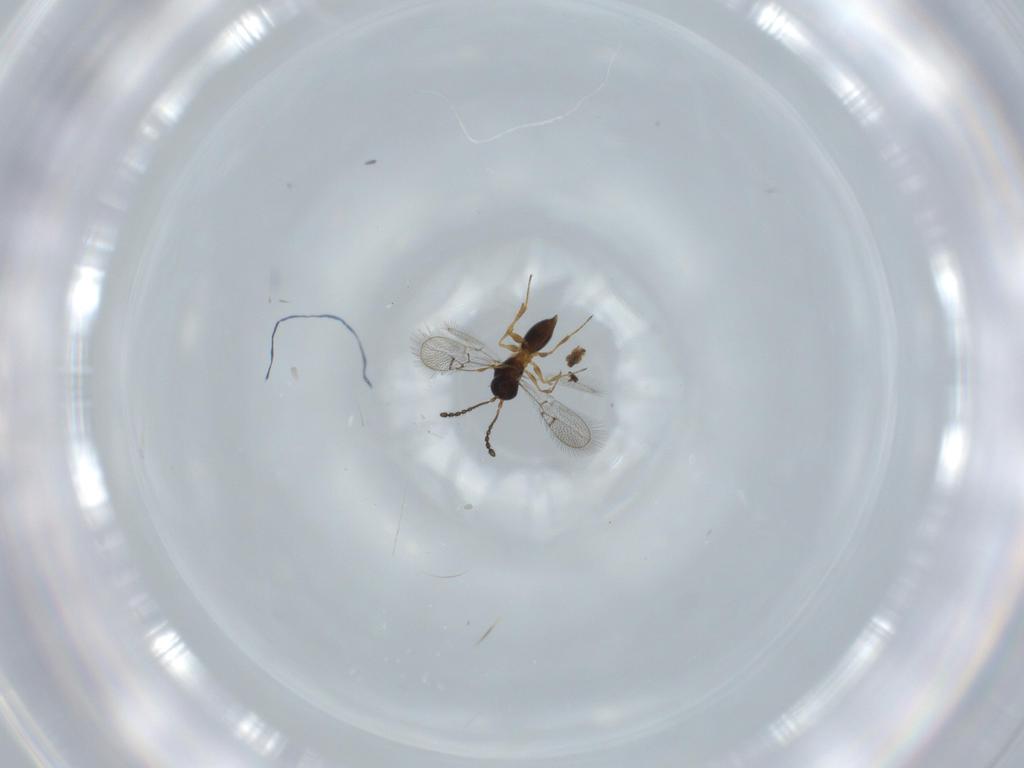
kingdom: Animalia
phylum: Arthropoda
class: Insecta
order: Hymenoptera
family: Figitidae
